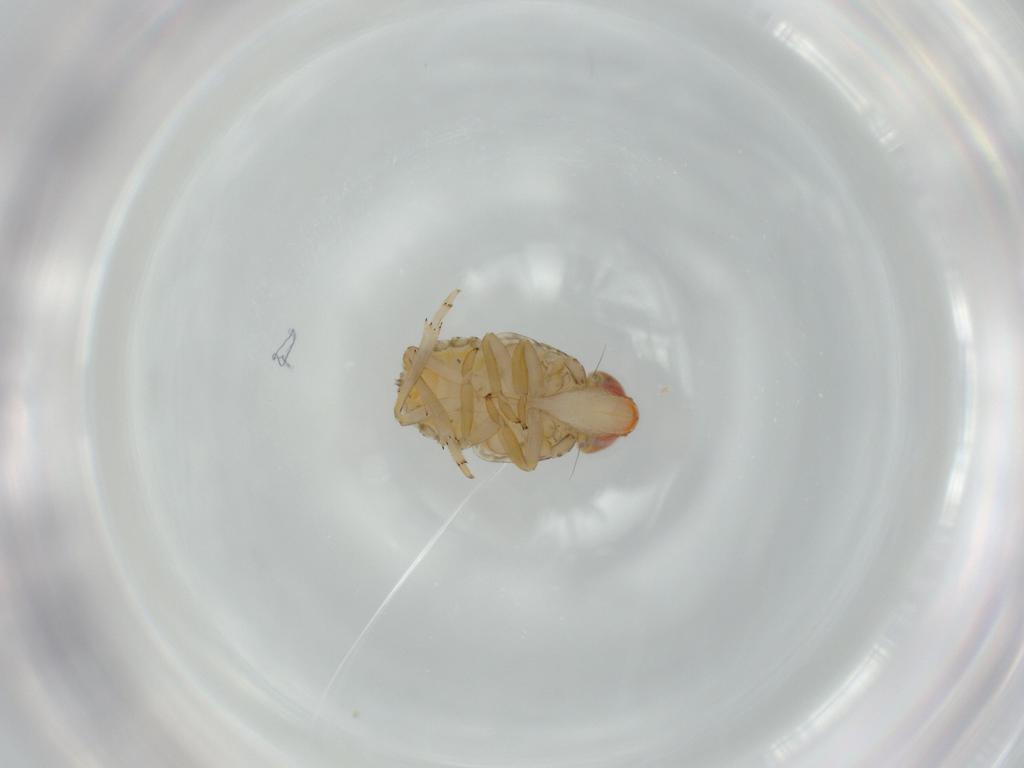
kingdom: Animalia
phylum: Arthropoda
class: Insecta
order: Hemiptera
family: Fulgoroidea_incertae_sedis
